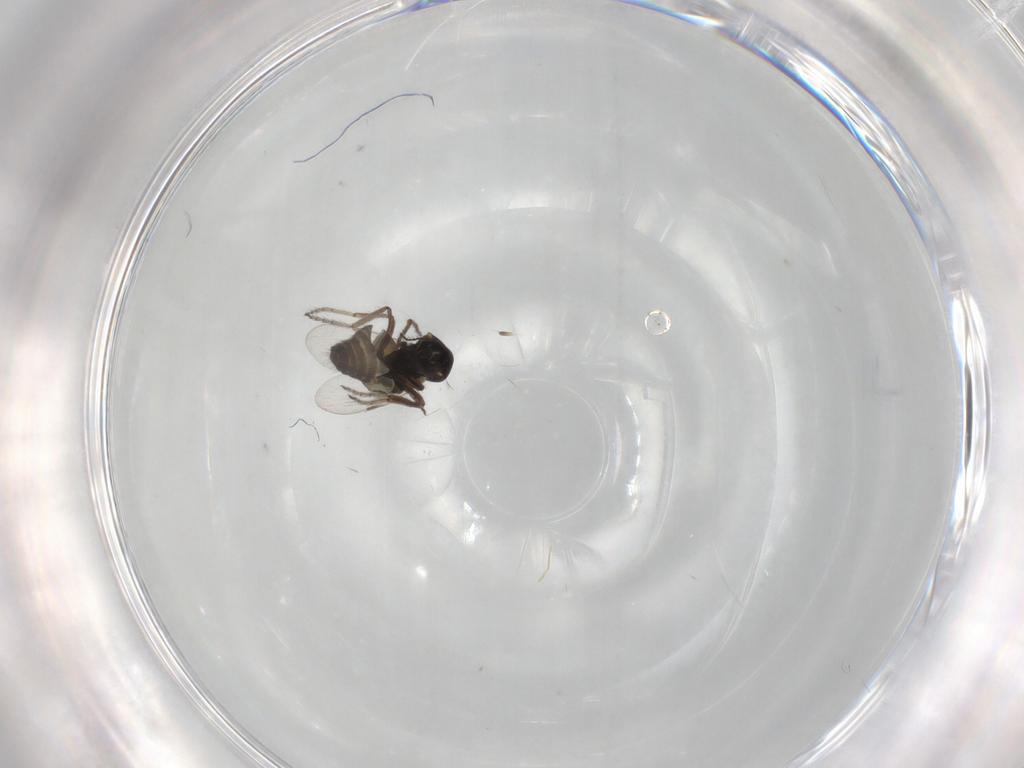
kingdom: Animalia
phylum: Arthropoda
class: Insecta
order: Diptera
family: Ceratopogonidae
